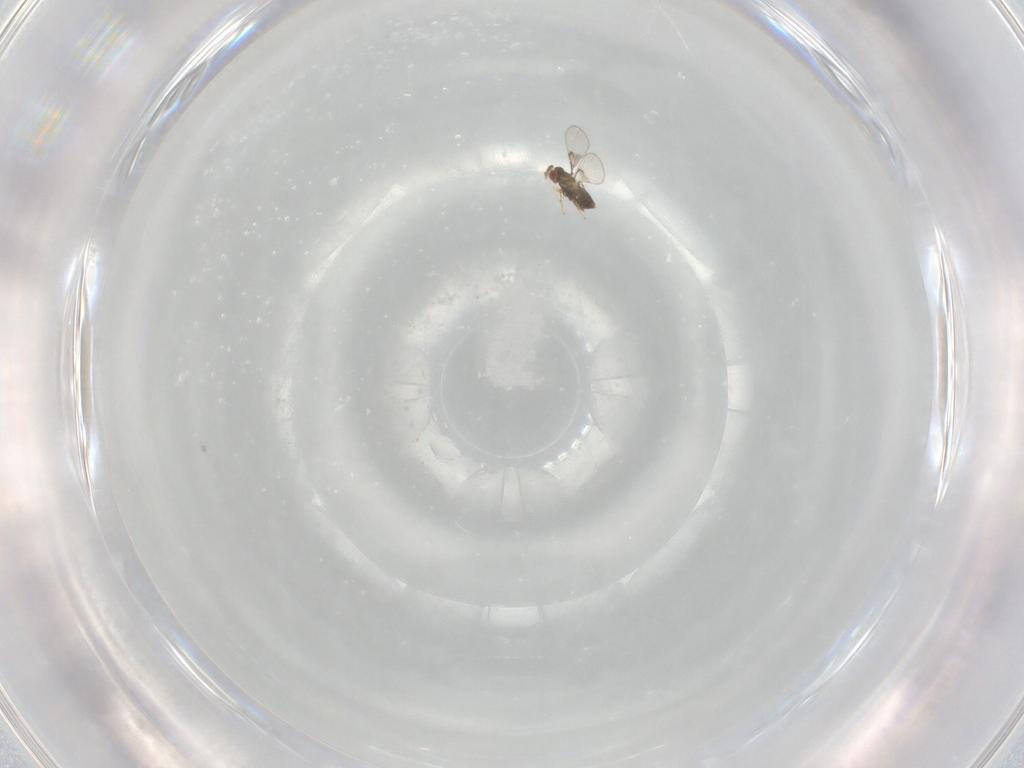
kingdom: Animalia
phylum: Arthropoda
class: Insecta
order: Hymenoptera
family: Trichogrammatidae
